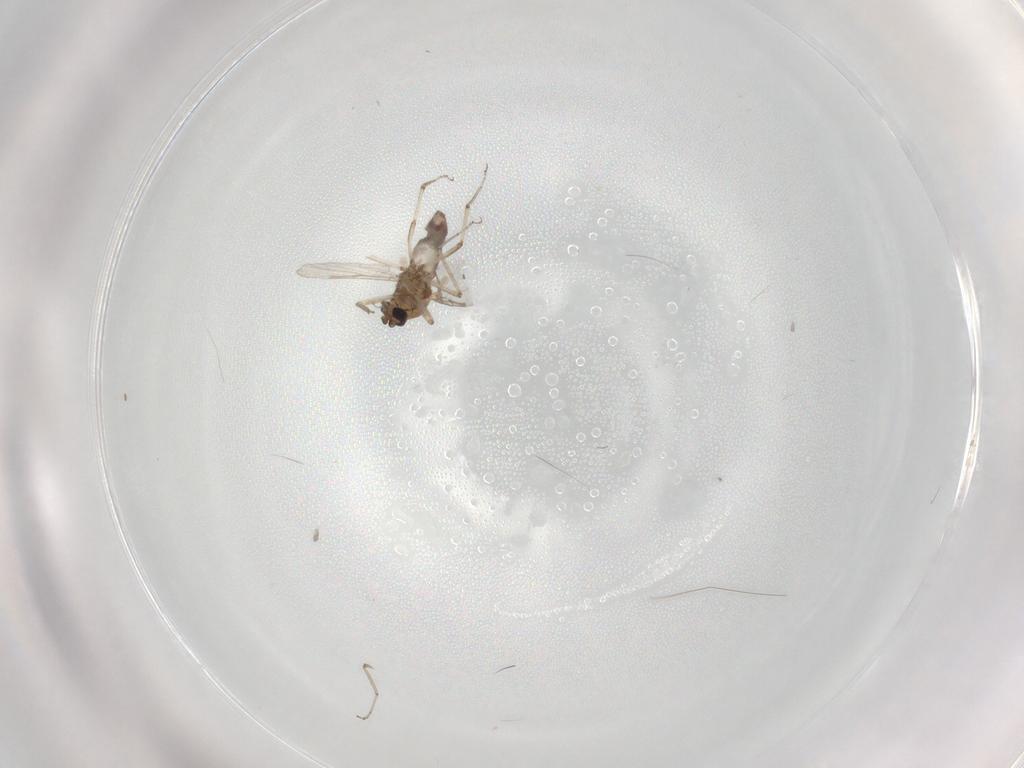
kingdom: Animalia
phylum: Arthropoda
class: Insecta
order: Diptera
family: Ceratopogonidae
